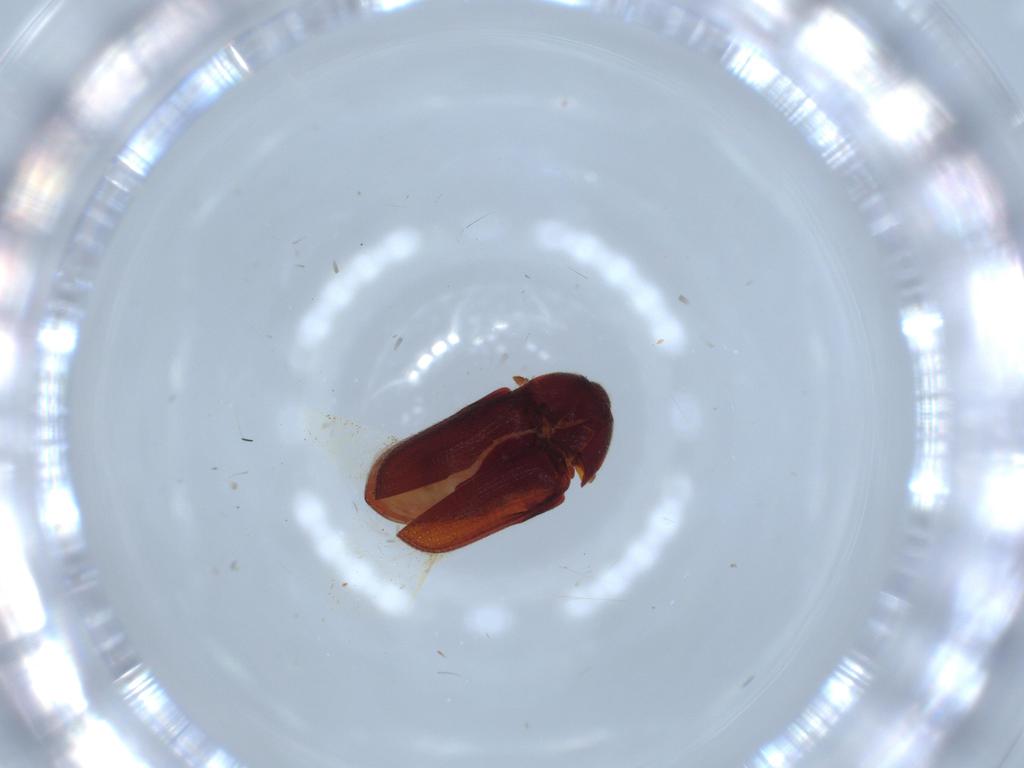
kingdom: Animalia
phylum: Arthropoda
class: Insecta
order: Coleoptera
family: Throscidae
